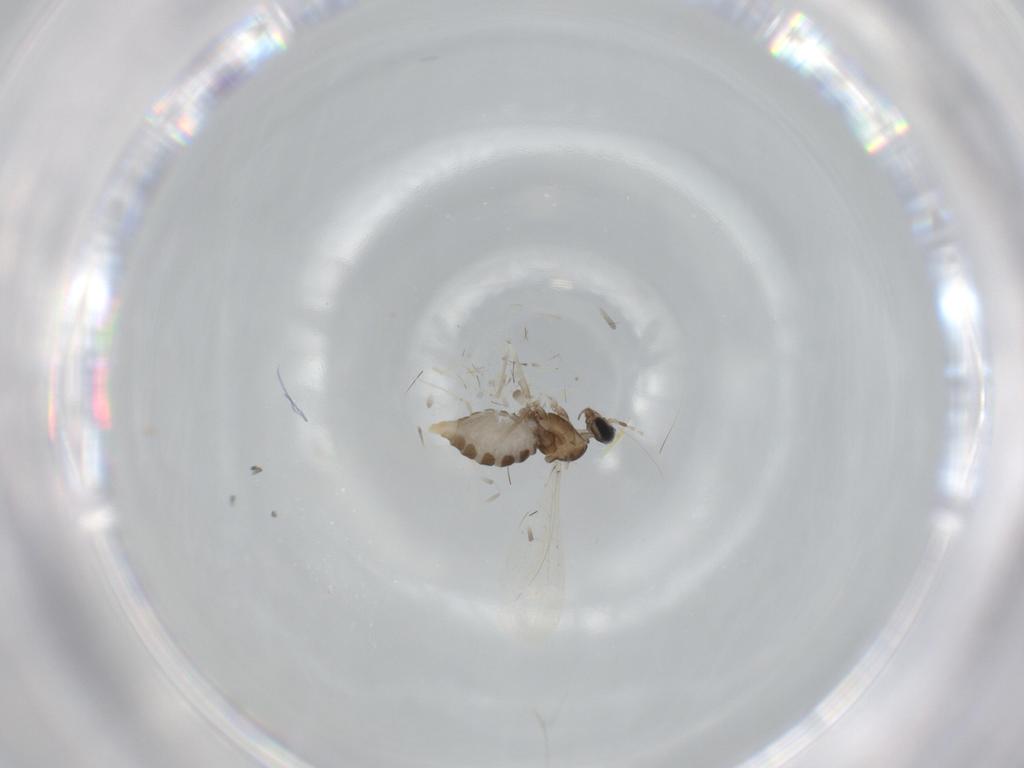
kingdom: Animalia
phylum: Arthropoda
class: Insecta
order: Diptera
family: Cecidomyiidae
